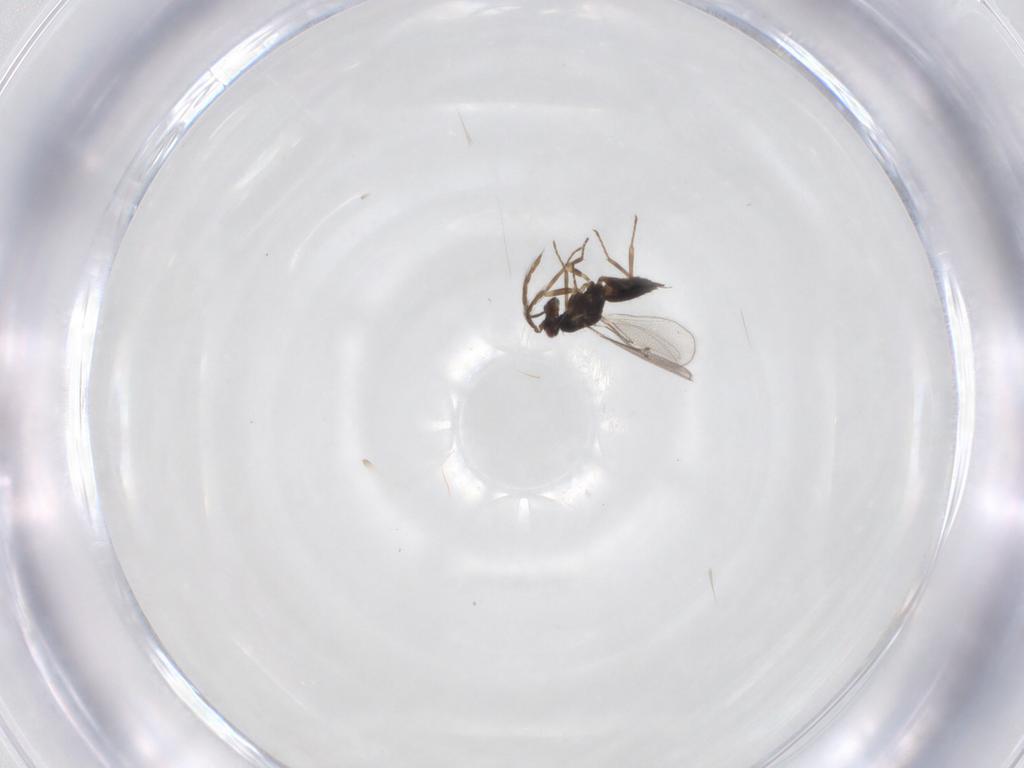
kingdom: Animalia
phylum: Arthropoda
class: Insecta
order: Hymenoptera
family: Eulophidae
